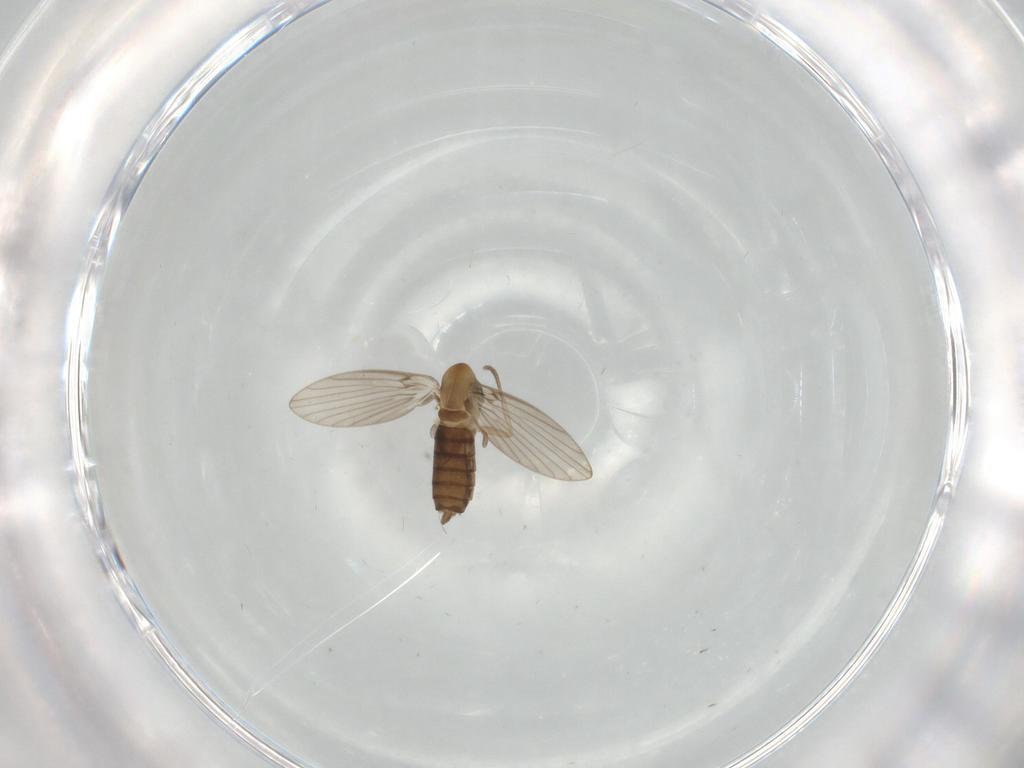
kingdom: Animalia
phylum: Arthropoda
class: Insecta
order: Diptera
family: Psychodidae
